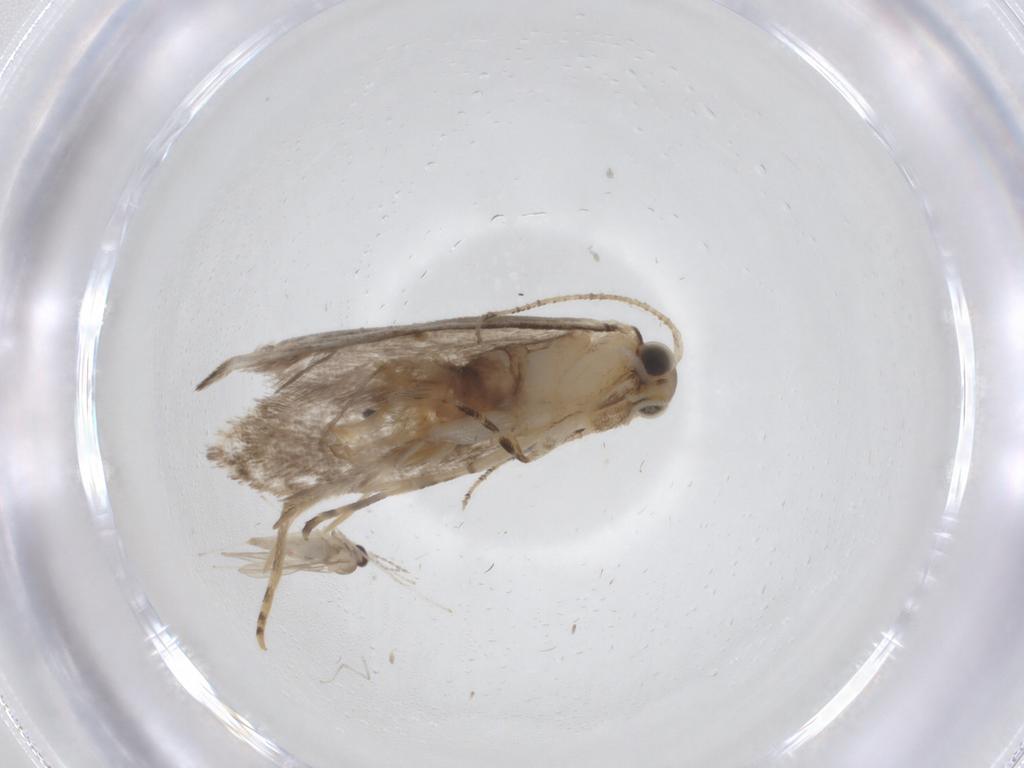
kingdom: Animalia
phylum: Arthropoda
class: Insecta
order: Lepidoptera
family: Tineidae
